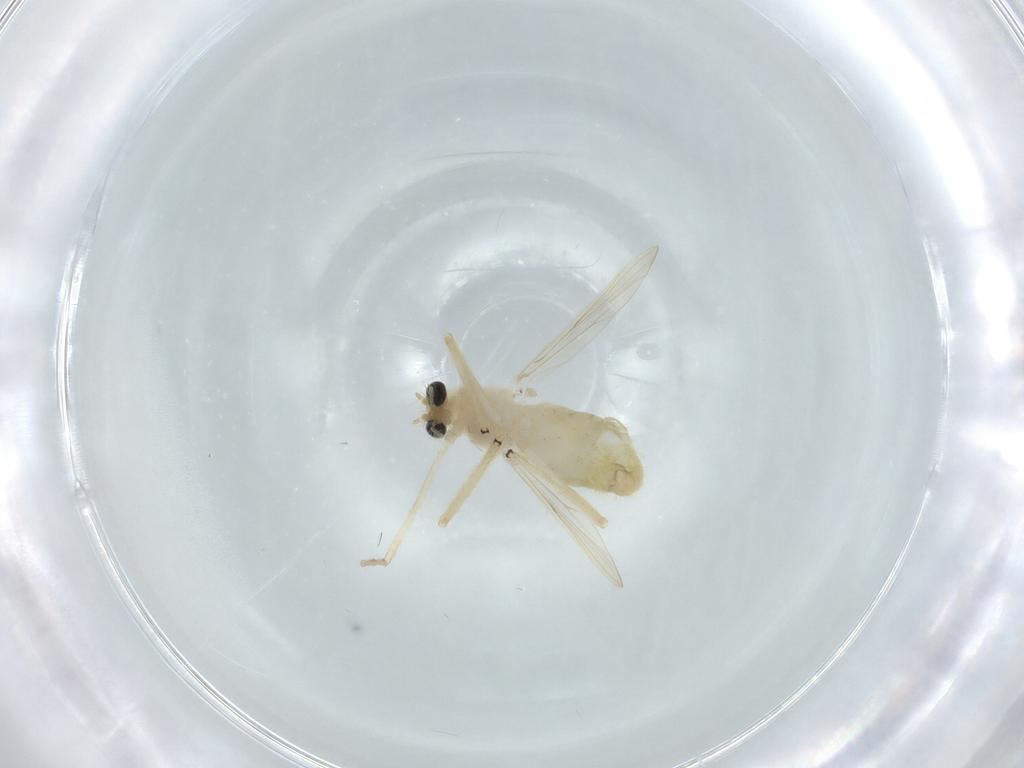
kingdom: Animalia
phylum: Arthropoda
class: Insecta
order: Diptera
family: Chironomidae
